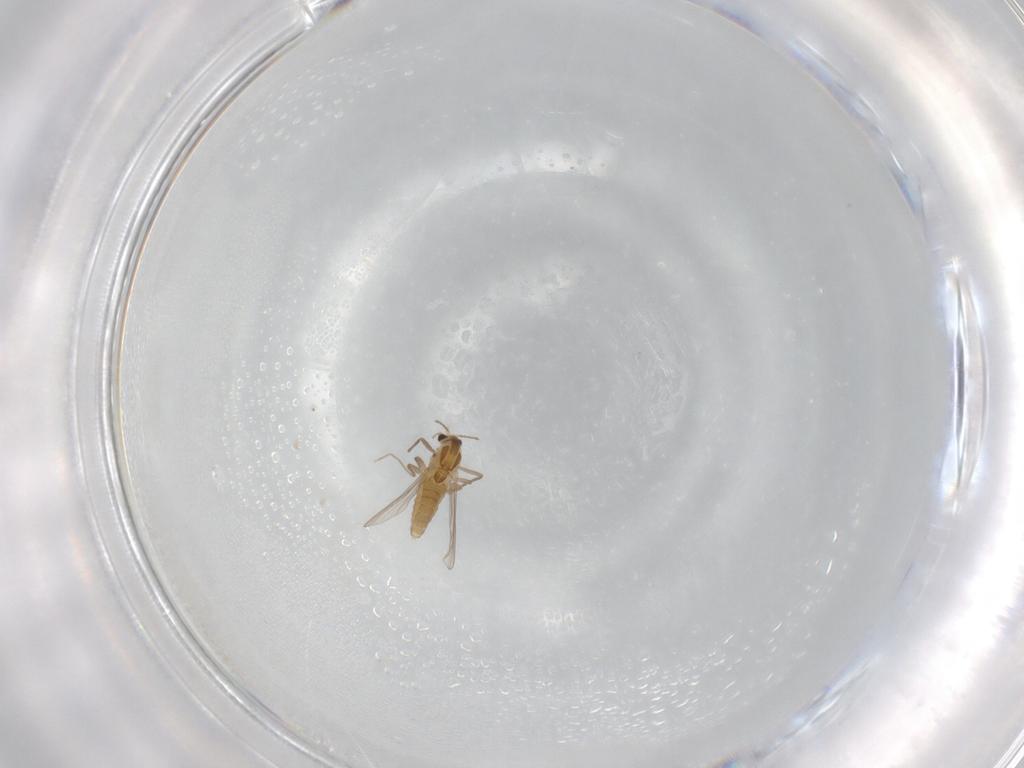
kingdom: Animalia
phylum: Arthropoda
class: Insecta
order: Diptera
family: Chironomidae
